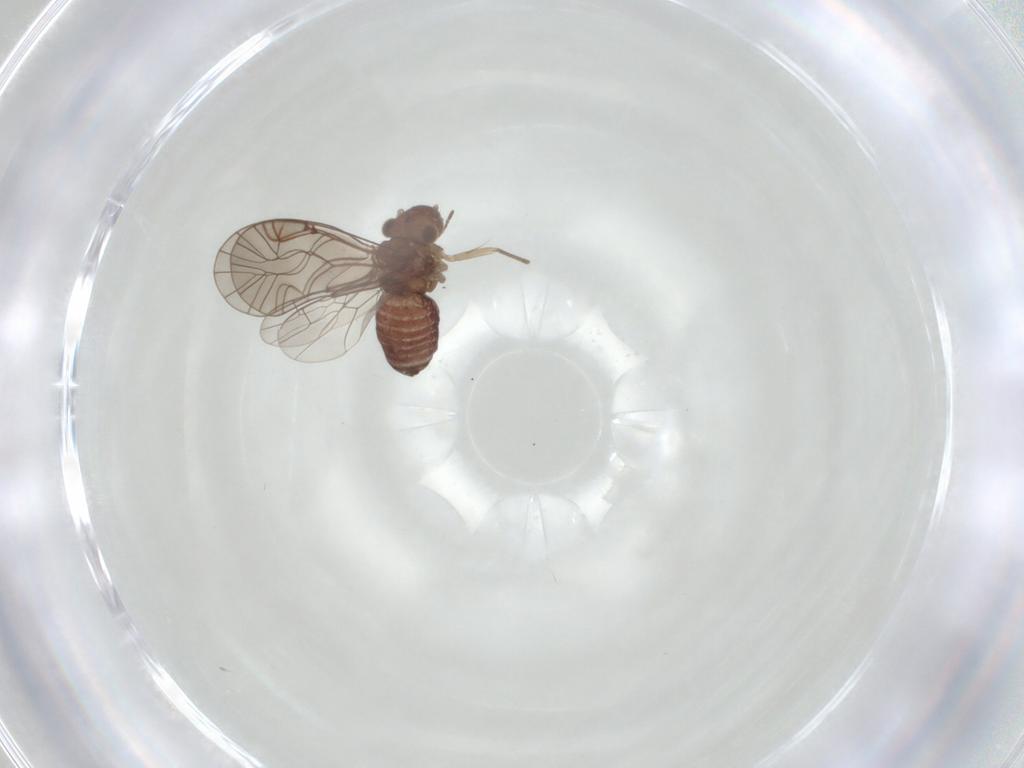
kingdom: Animalia
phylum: Arthropoda
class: Insecta
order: Psocodea
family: Lachesillidae
